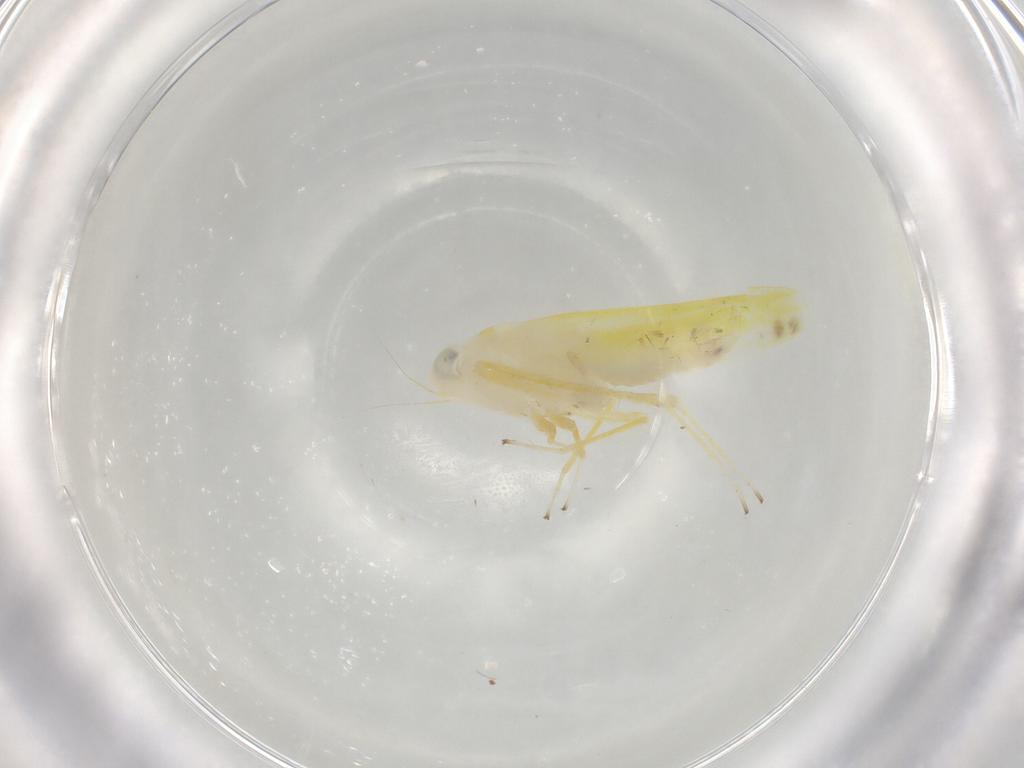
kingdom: Animalia
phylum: Arthropoda
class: Insecta
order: Hemiptera
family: Cicadellidae
